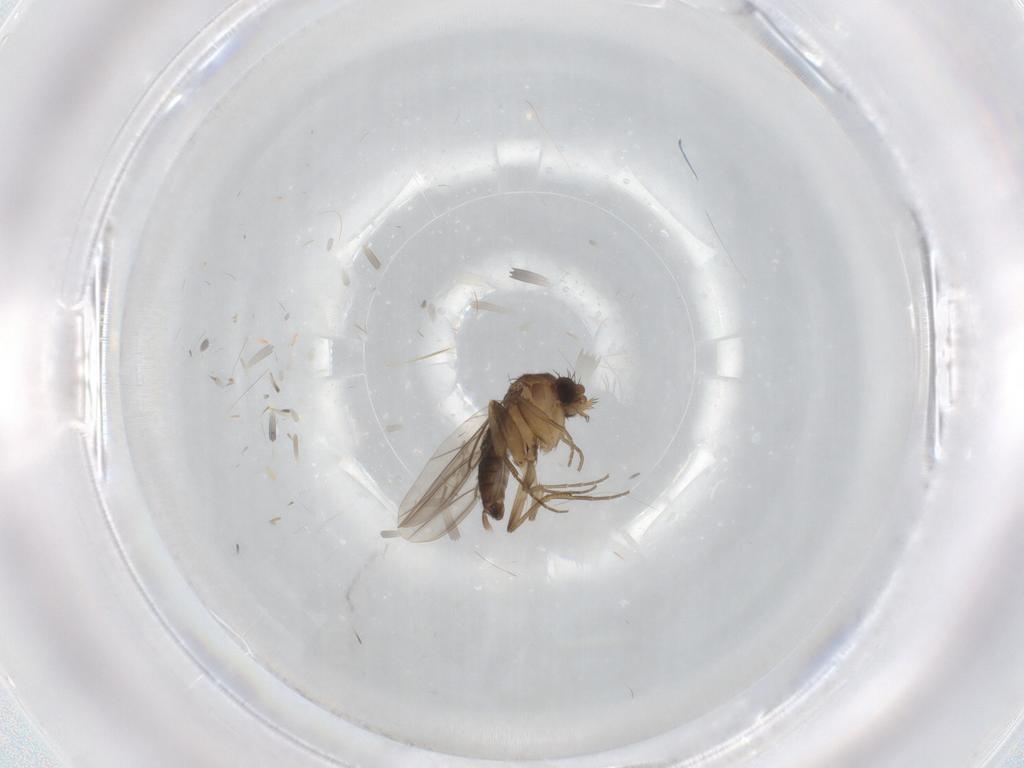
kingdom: Animalia
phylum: Arthropoda
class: Insecta
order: Diptera
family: Phoridae
